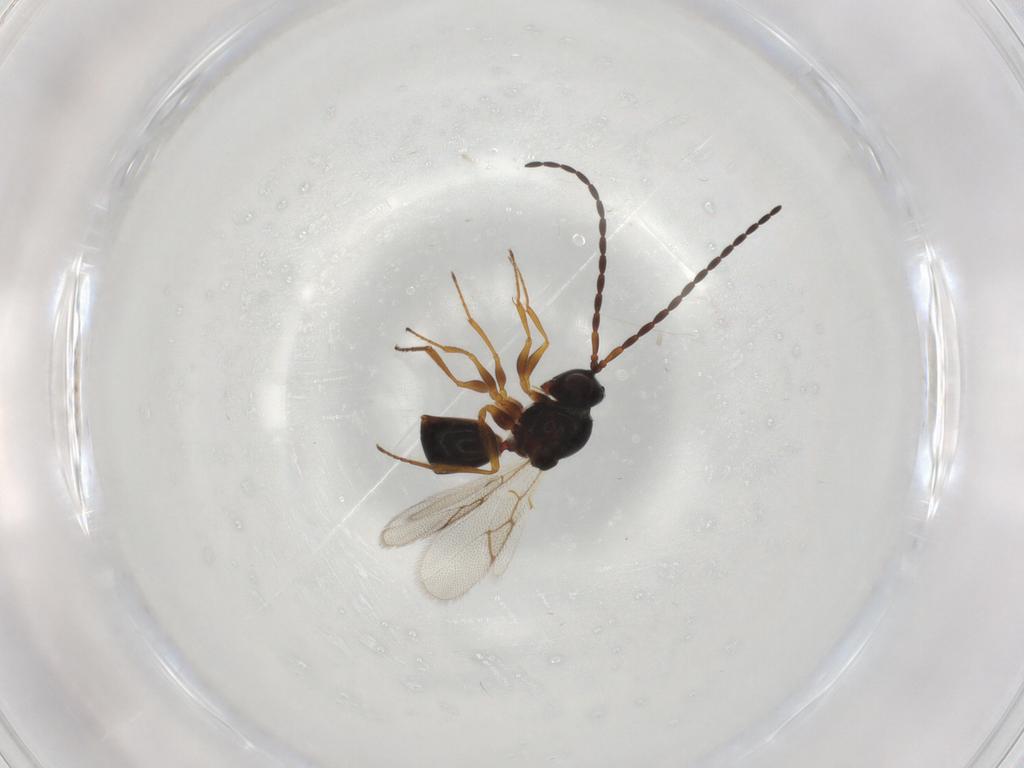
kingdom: Animalia
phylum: Arthropoda
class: Insecta
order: Hymenoptera
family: Figitidae
